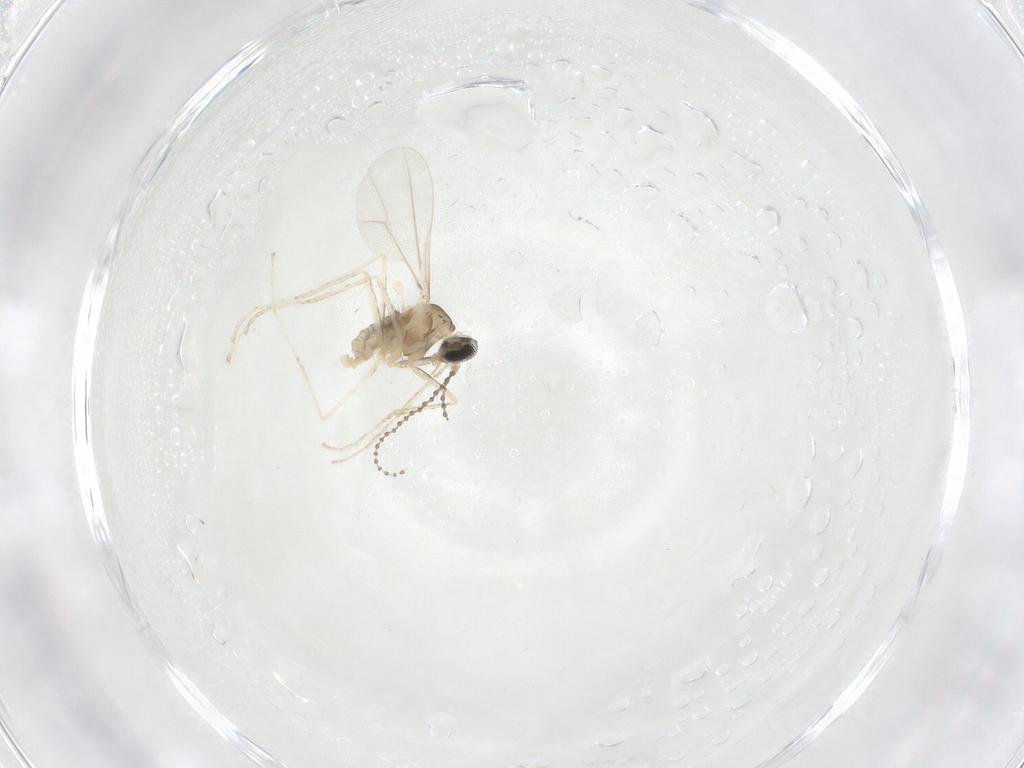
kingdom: Animalia
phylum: Arthropoda
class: Insecta
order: Diptera
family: Cecidomyiidae
